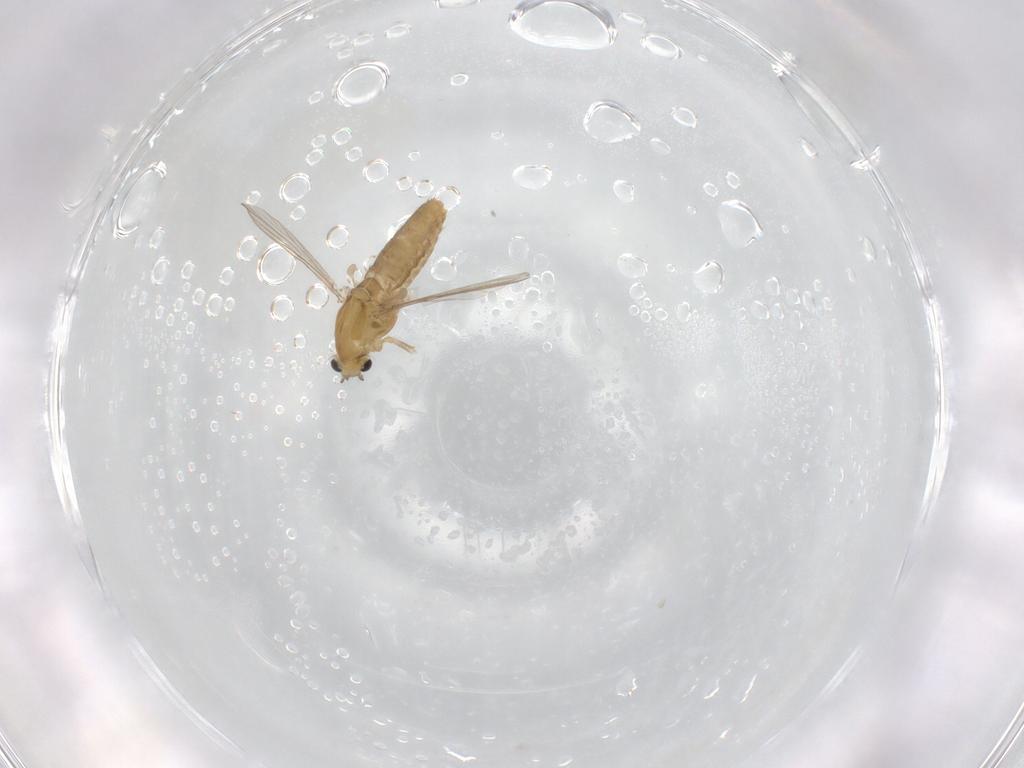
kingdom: Animalia
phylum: Arthropoda
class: Insecta
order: Diptera
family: Chironomidae
